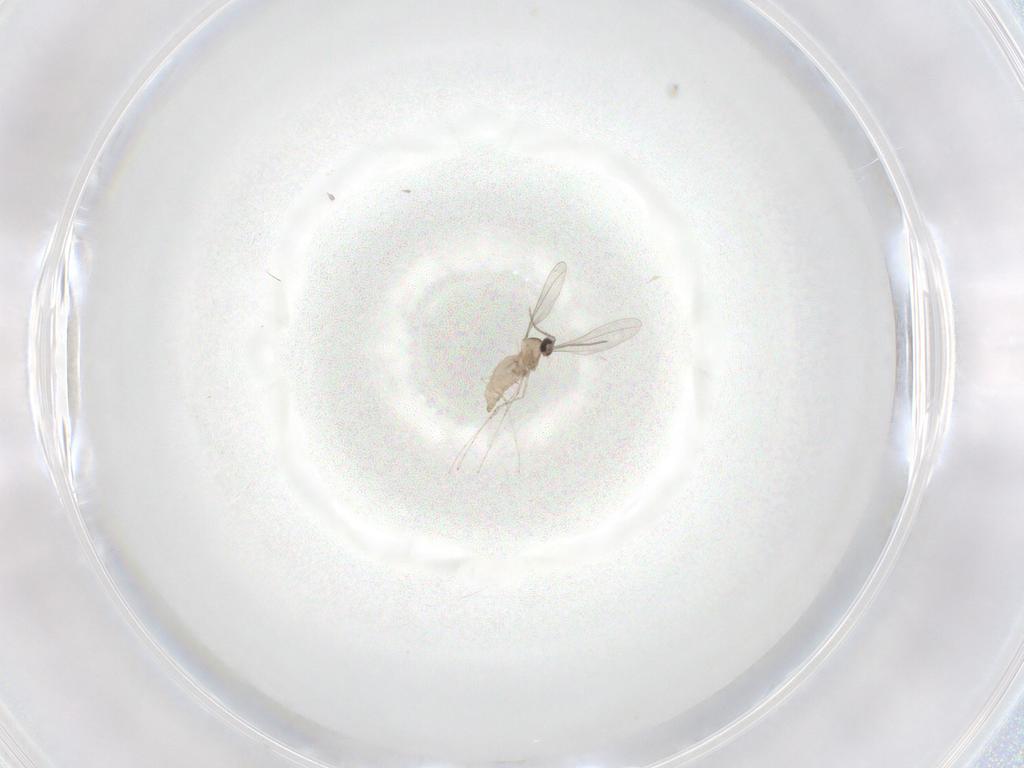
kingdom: Animalia
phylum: Arthropoda
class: Insecta
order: Diptera
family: Cecidomyiidae
